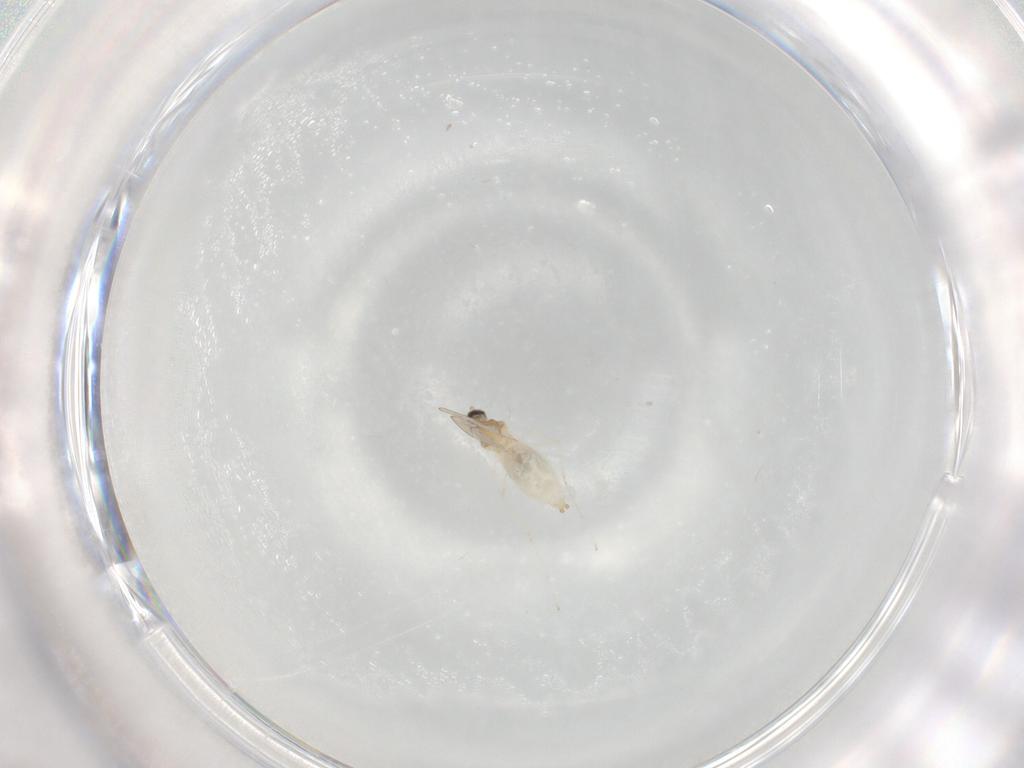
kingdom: Animalia
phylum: Arthropoda
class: Insecta
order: Diptera
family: Cecidomyiidae
